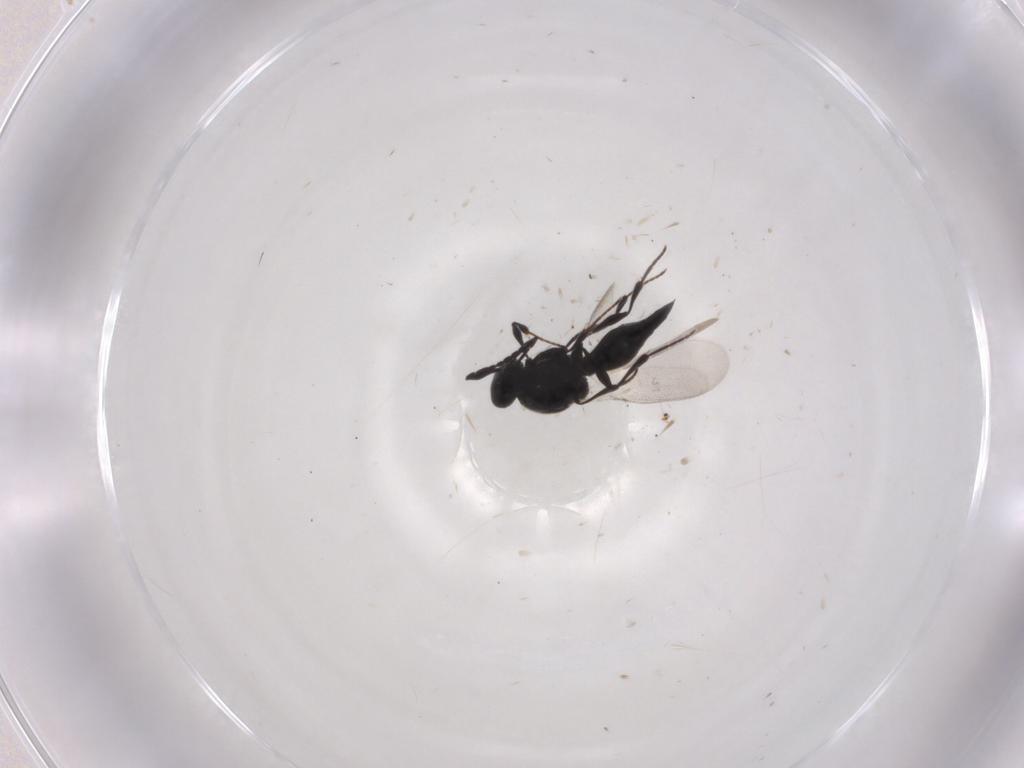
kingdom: Animalia
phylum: Arthropoda
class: Insecta
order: Hymenoptera
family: Platygastridae
